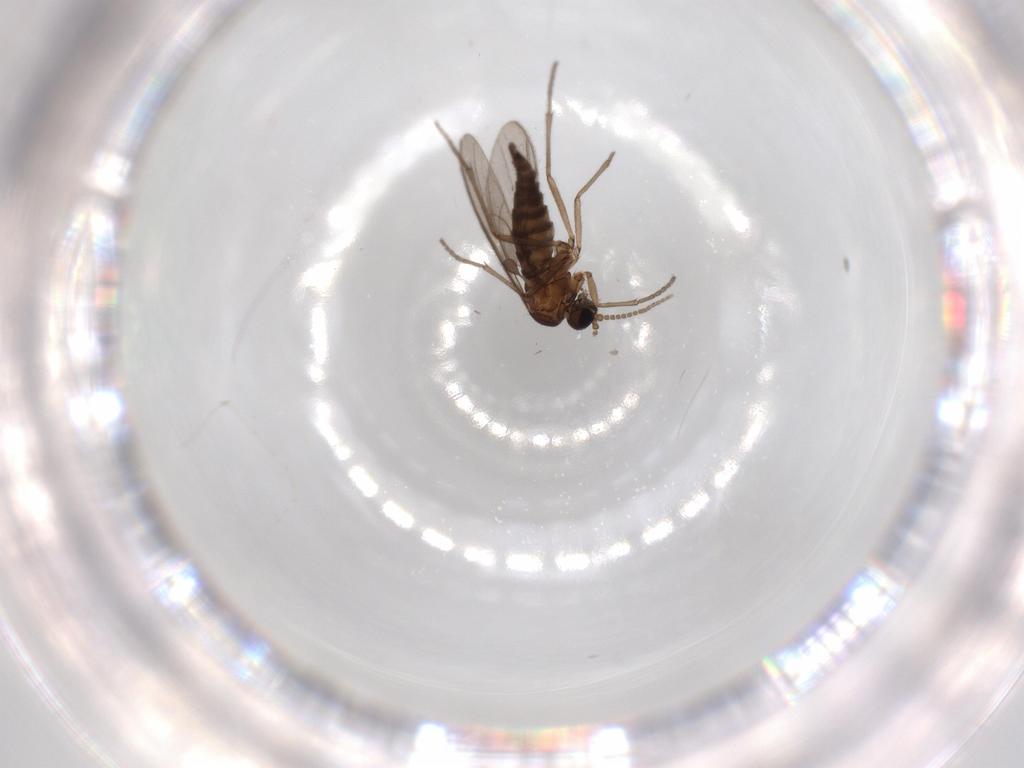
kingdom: Animalia
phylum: Arthropoda
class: Insecta
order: Diptera
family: Sciaridae
